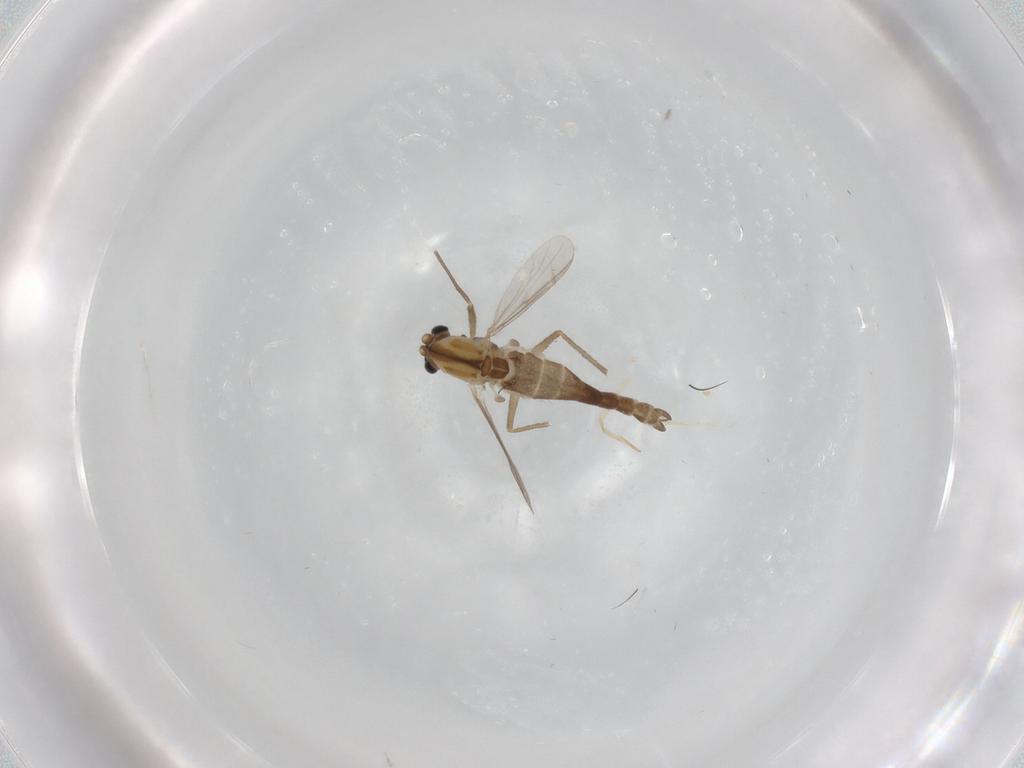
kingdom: Animalia
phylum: Arthropoda
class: Insecta
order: Diptera
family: Chironomidae
